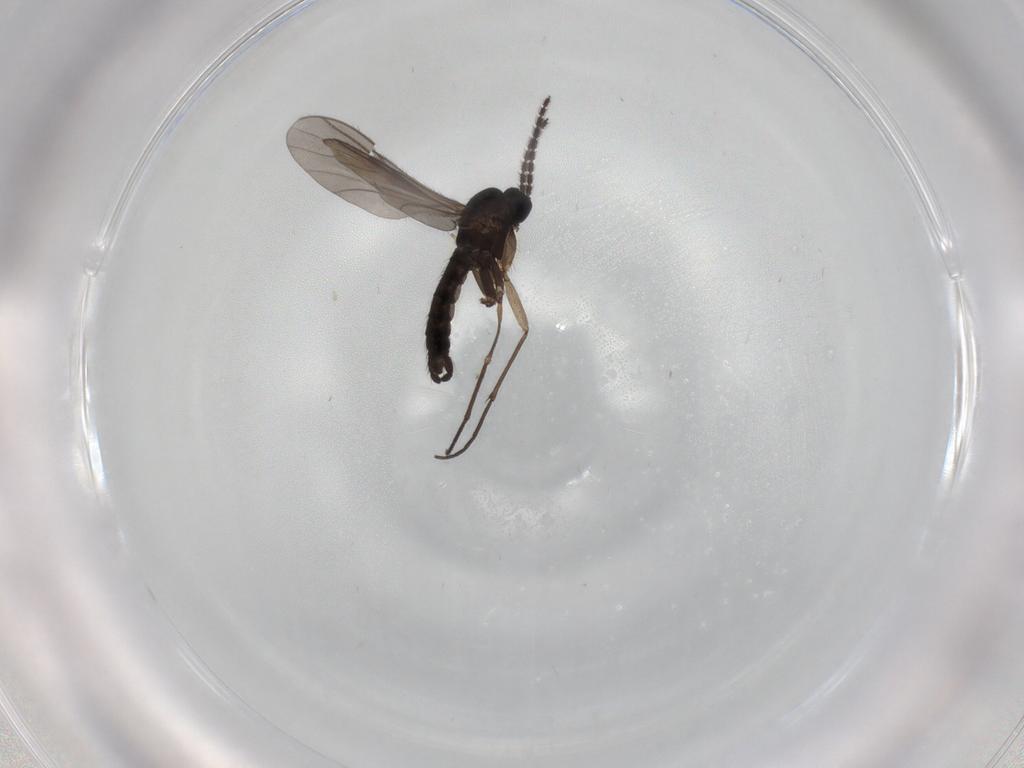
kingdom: Animalia
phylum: Arthropoda
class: Insecta
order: Diptera
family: Sciaridae
